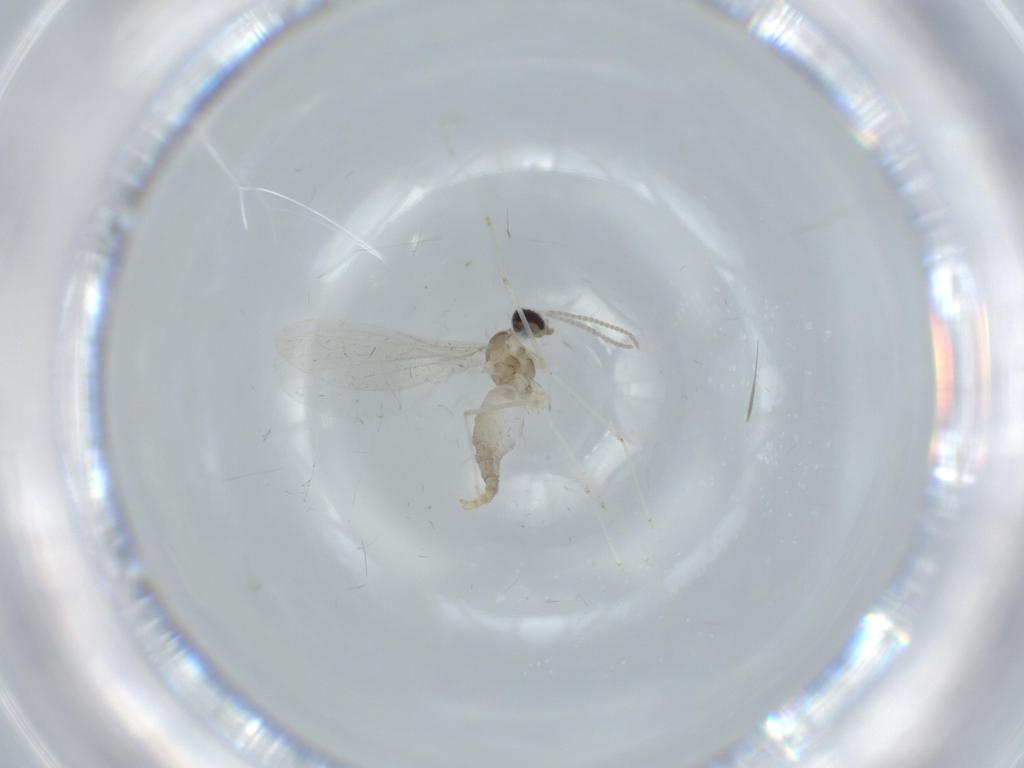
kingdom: Animalia
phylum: Arthropoda
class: Insecta
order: Diptera
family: Cecidomyiidae
